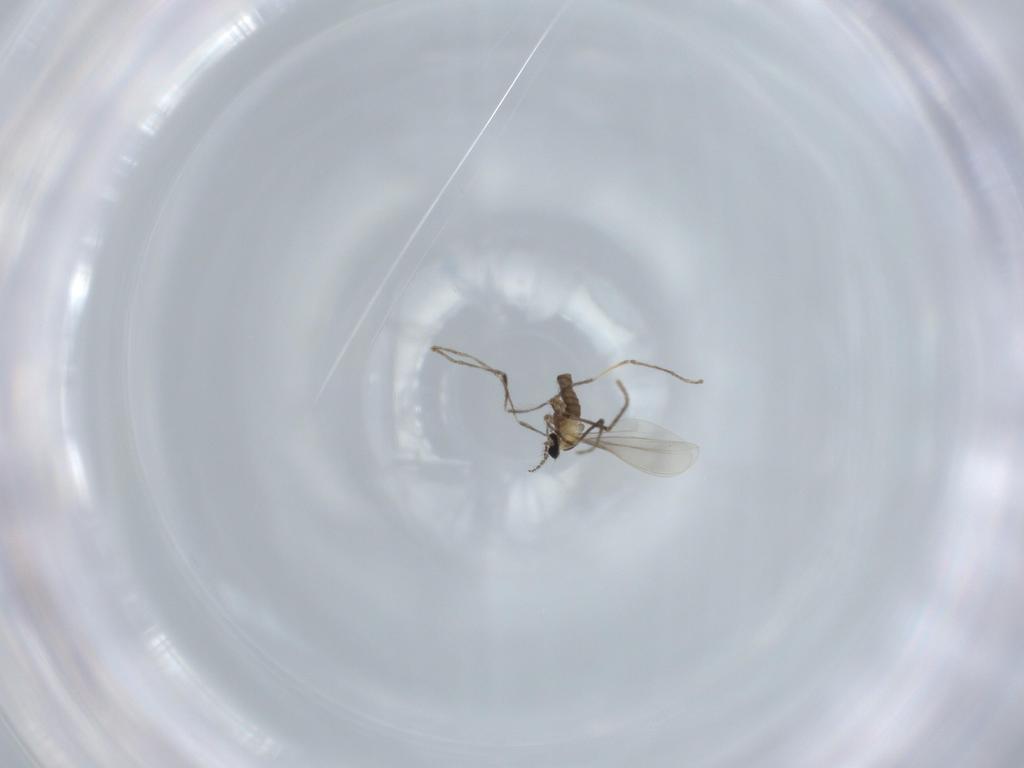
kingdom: Animalia
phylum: Arthropoda
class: Insecta
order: Diptera
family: Cecidomyiidae
